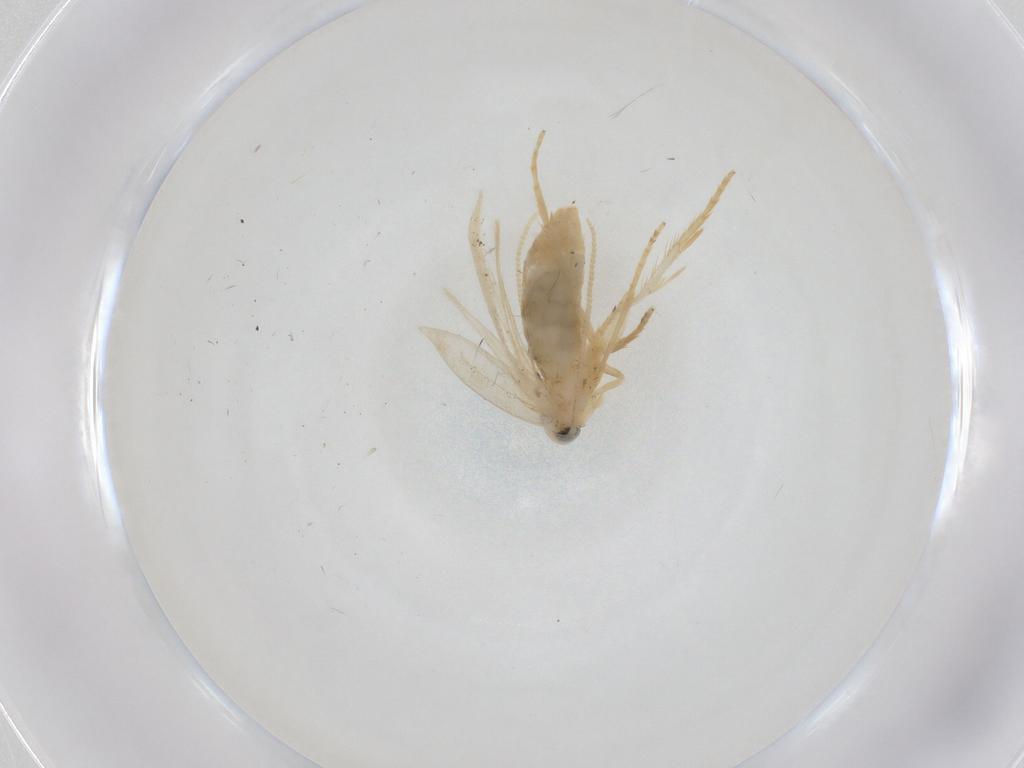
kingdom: Animalia
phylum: Arthropoda
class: Insecta
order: Lepidoptera
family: Opostegidae
